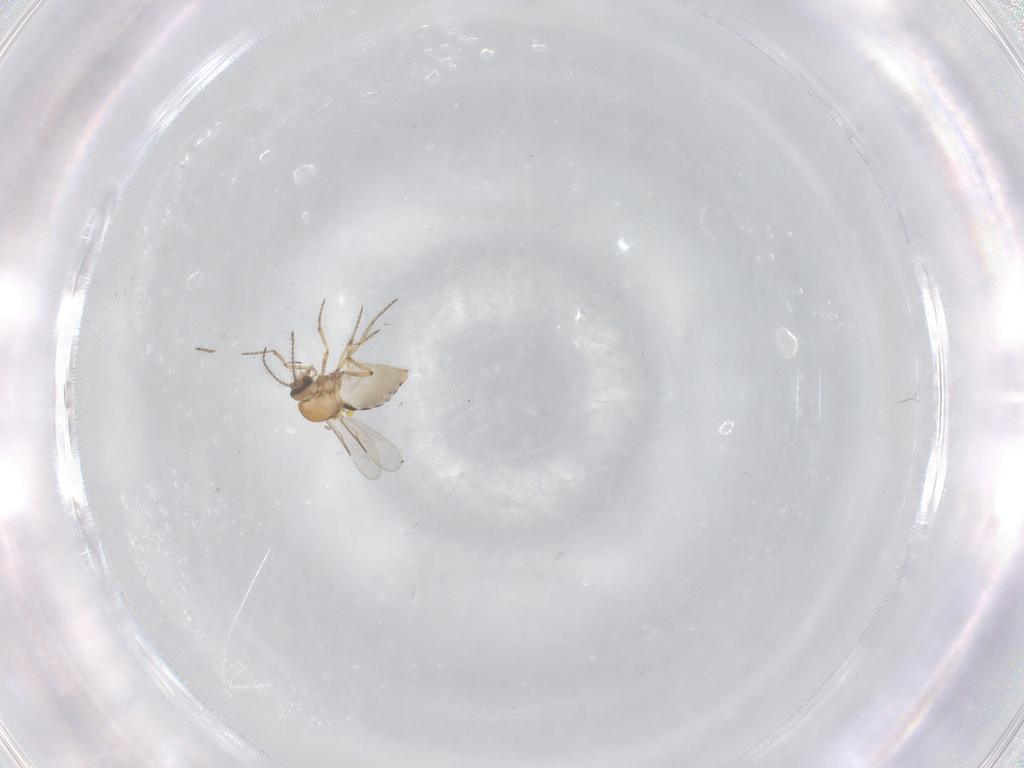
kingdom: Animalia
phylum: Arthropoda
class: Insecta
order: Diptera
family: Ceratopogonidae
